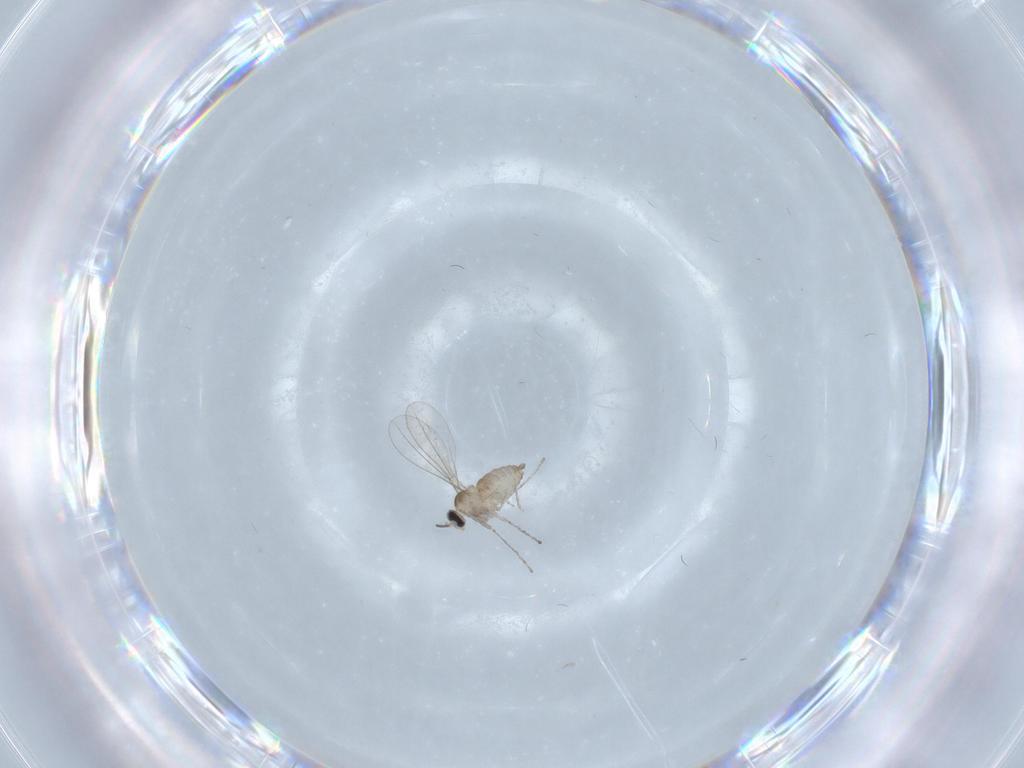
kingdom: Animalia
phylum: Arthropoda
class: Insecta
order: Diptera
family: Cecidomyiidae
